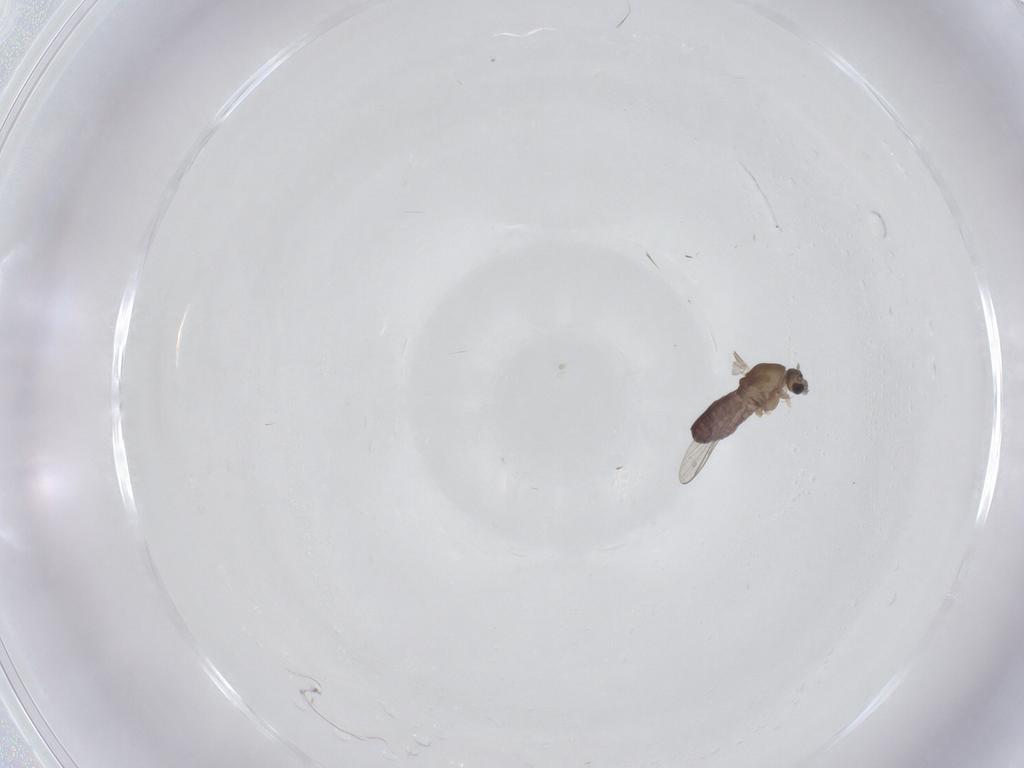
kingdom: Animalia
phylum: Arthropoda
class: Insecta
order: Diptera
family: Chironomidae
